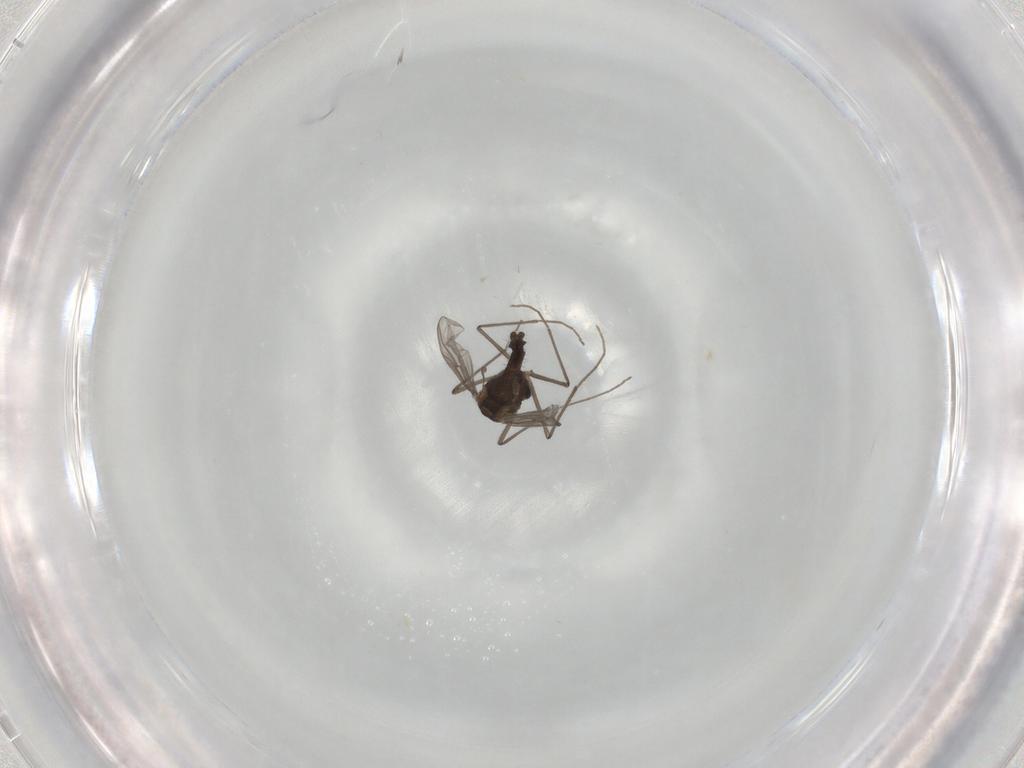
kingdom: Animalia
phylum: Arthropoda
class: Insecta
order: Diptera
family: Chironomidae
